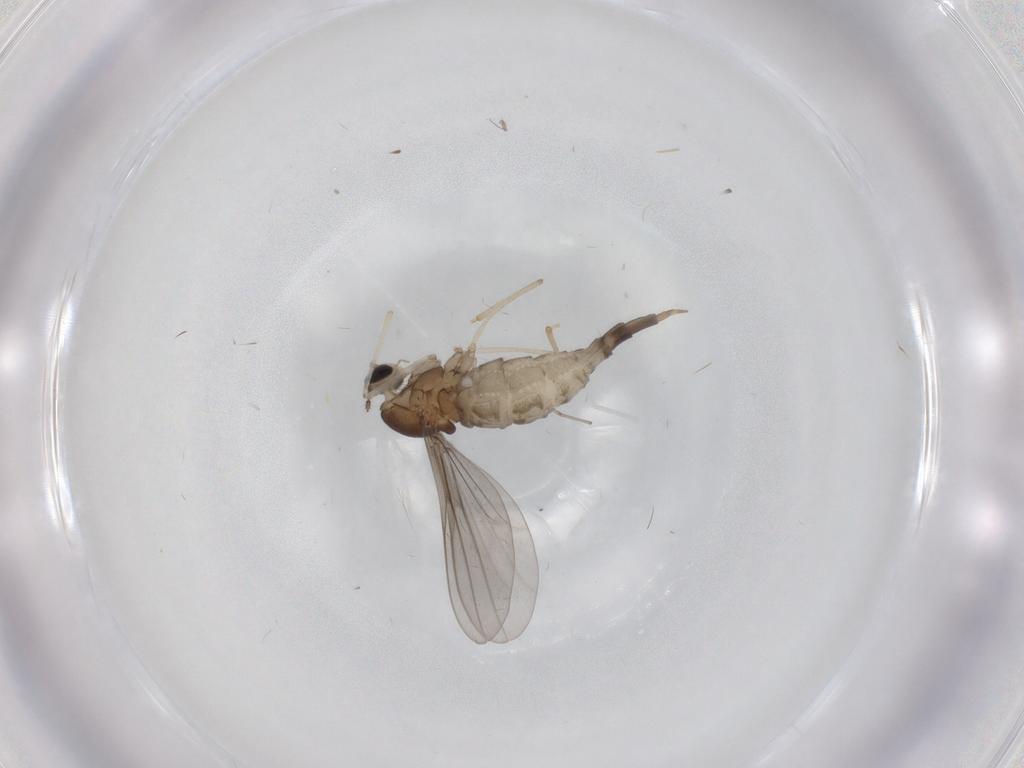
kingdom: Animalia
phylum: Arthropoda
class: Insecta
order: Diptera
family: Cecidomyiidae
